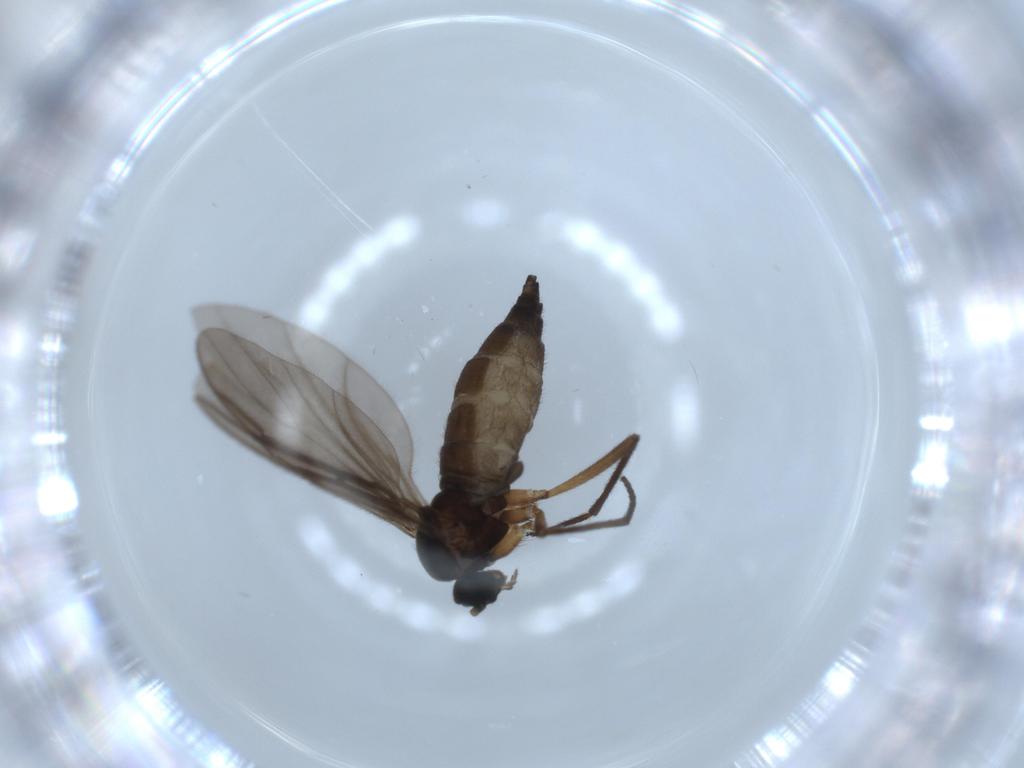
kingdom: Animalia
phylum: Arthropoda
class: Insecta
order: Diptera
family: Sciaridae
